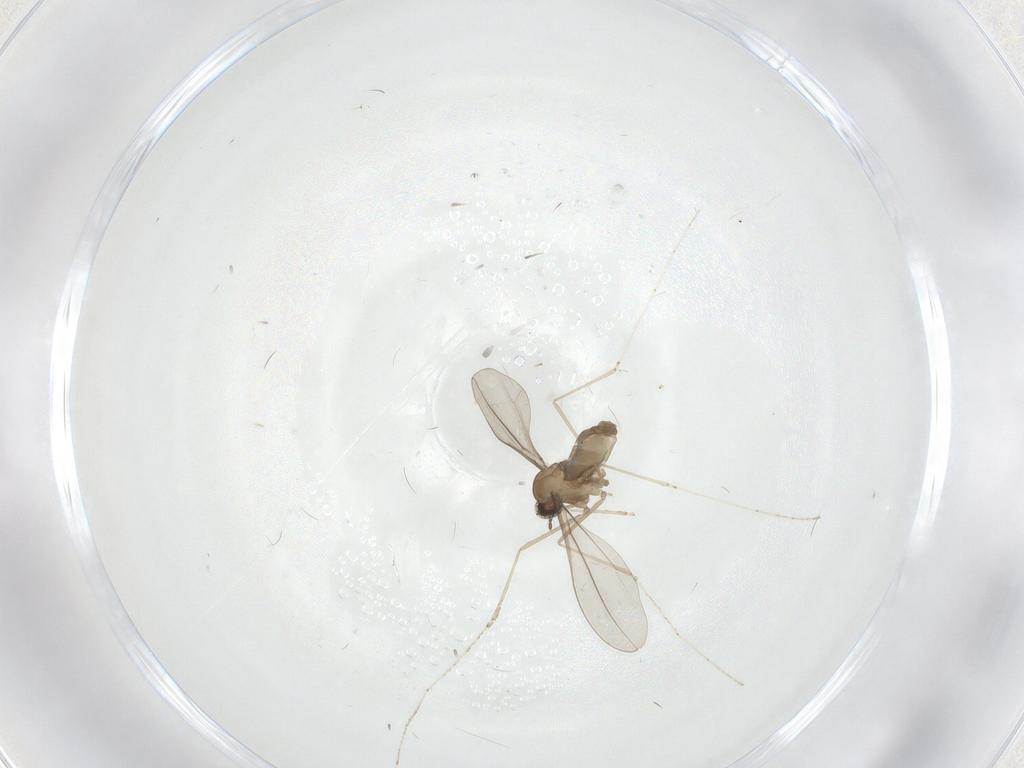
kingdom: Animalia
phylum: Arthropoda
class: Insecta
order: Diptera
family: Cecidomyiidae
